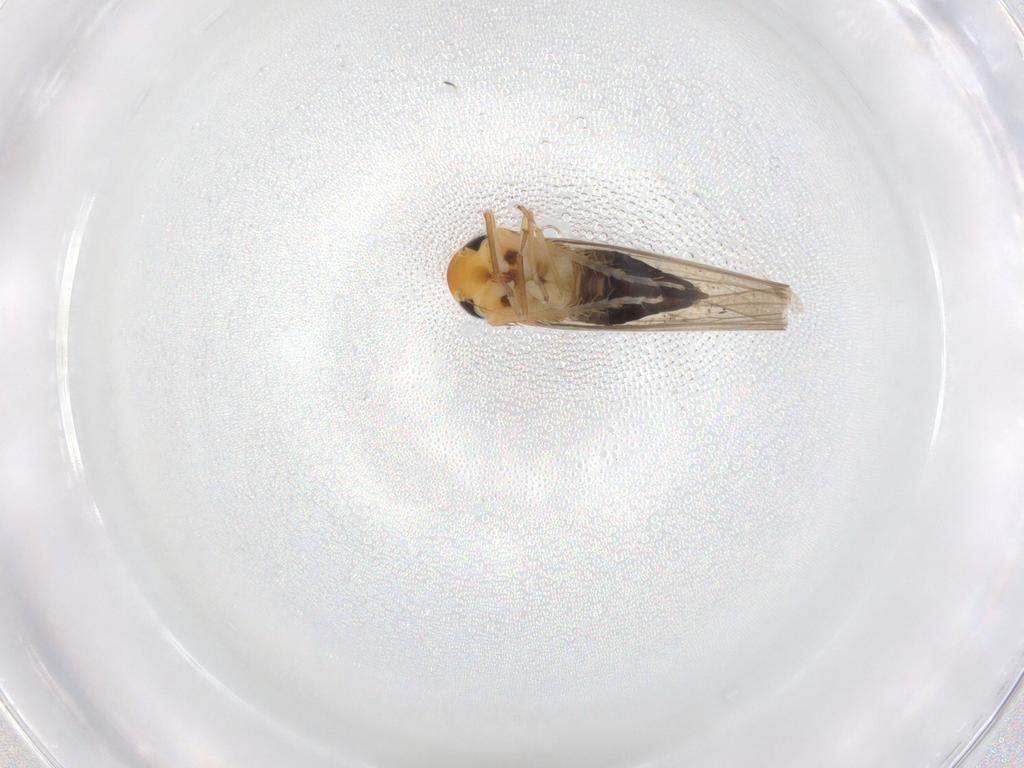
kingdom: Animalia
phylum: Arthropoda
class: Insecta
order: Hemiptera
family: Cicadellidae
